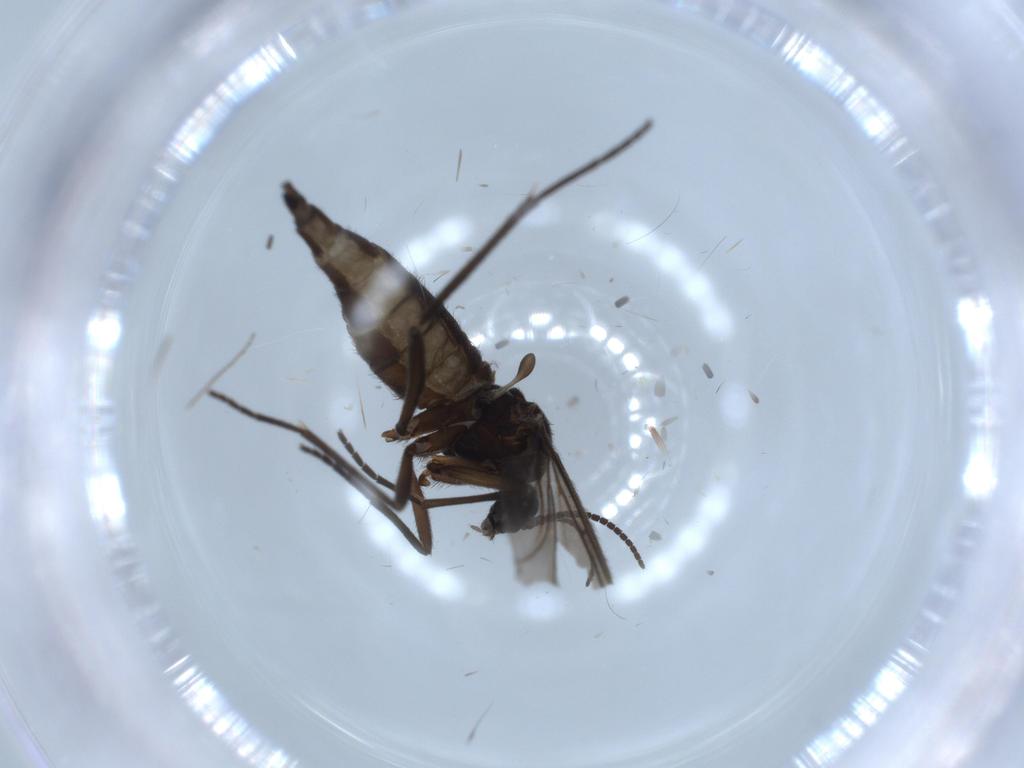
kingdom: Animalia
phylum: Arthropoda
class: Insecta
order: Diptera
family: Sciaridae
